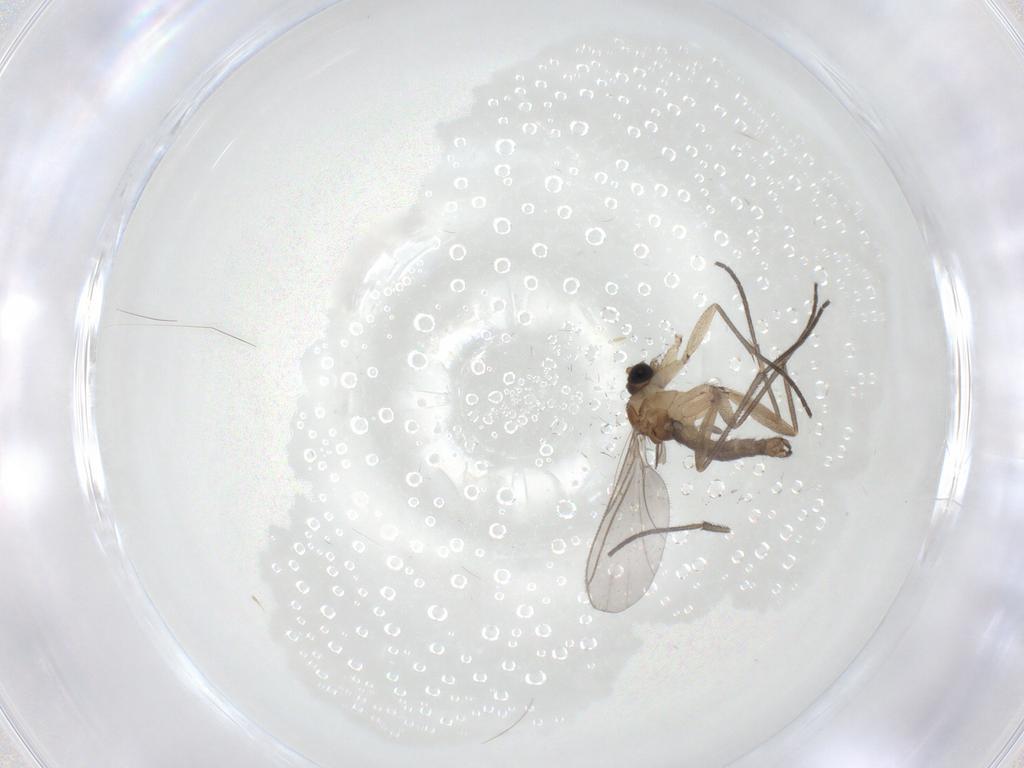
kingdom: Animalia
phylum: Arthropoda
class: Insecta
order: Diptera
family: Sciaridae
